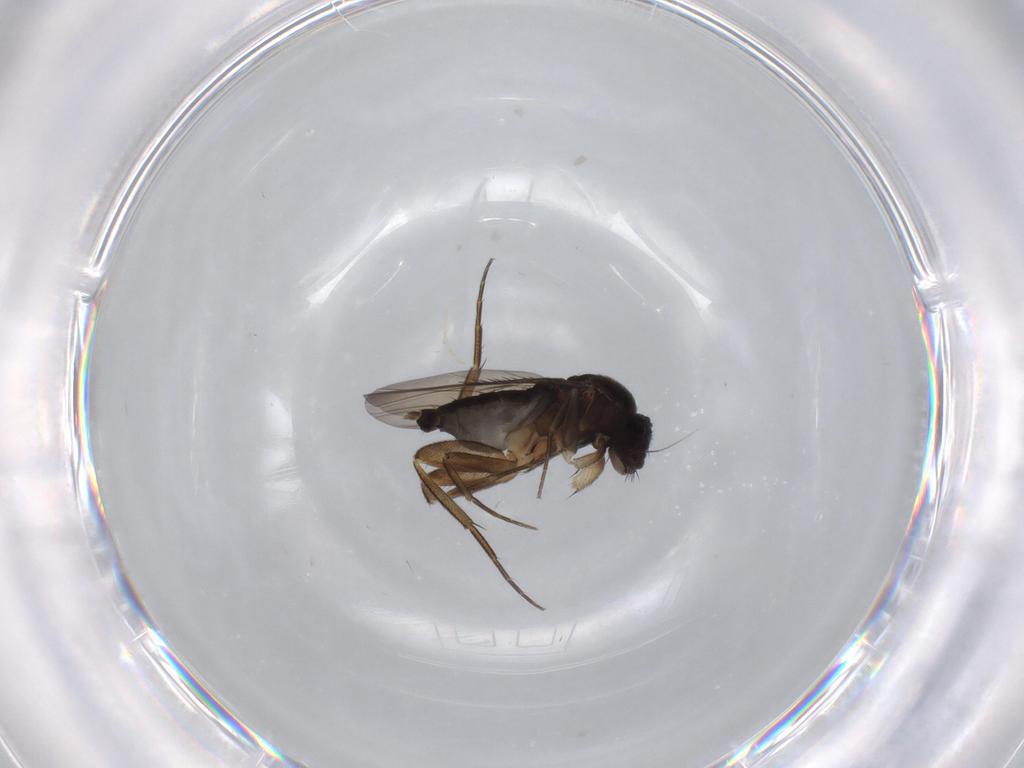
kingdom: Animalia
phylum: Arthropoda
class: Insecta
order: Diptera
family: Phoridae
